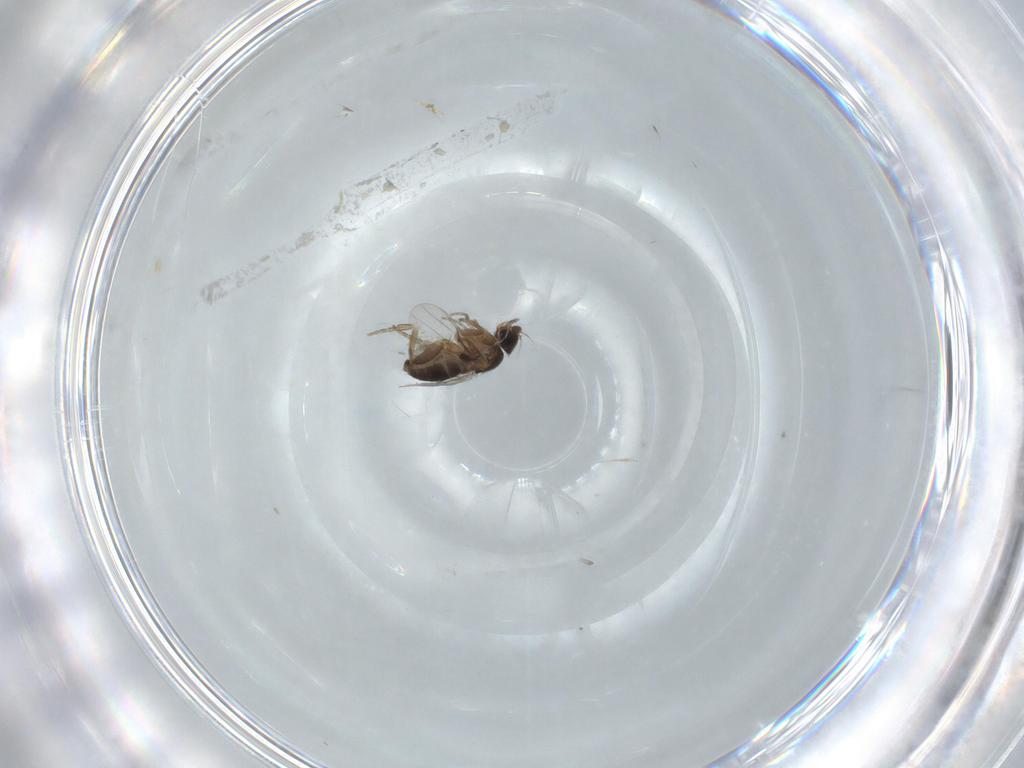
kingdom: Animalia
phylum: Arthropoda
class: Insecta
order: Diptera
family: Phoridae
